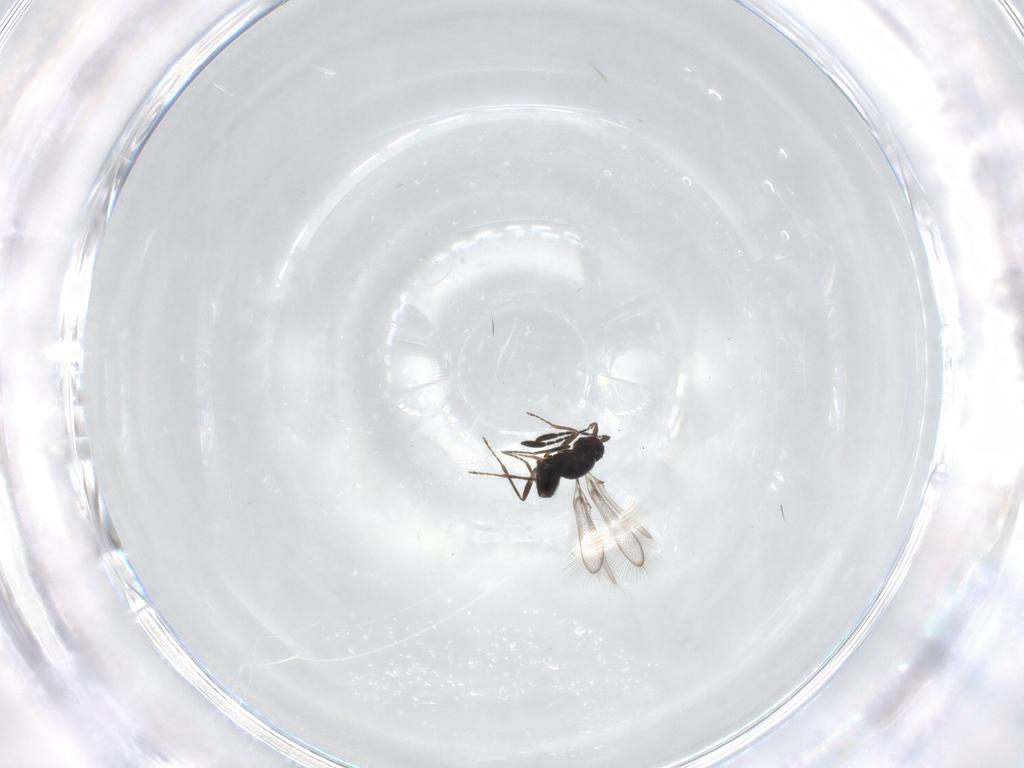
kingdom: Animalia
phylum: Arthropoda
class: Insecta
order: Hymenoptera
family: Mymaridae
